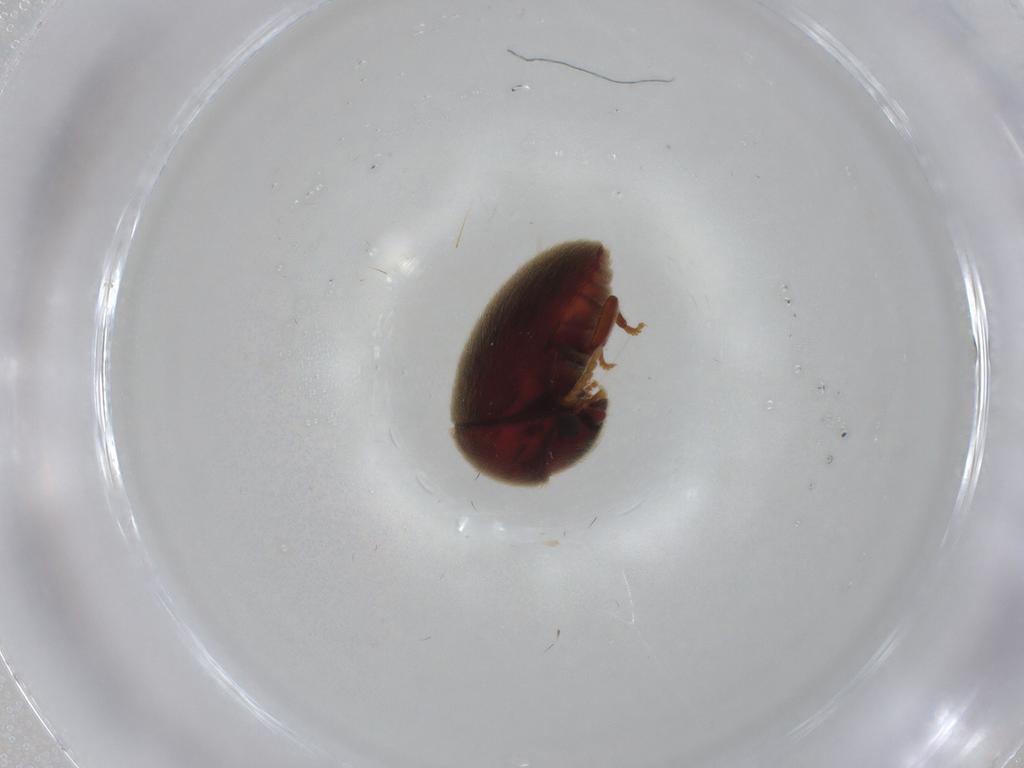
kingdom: Animalia
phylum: Arthropoda
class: Insecta
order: Coleoptera
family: Ptinidae
